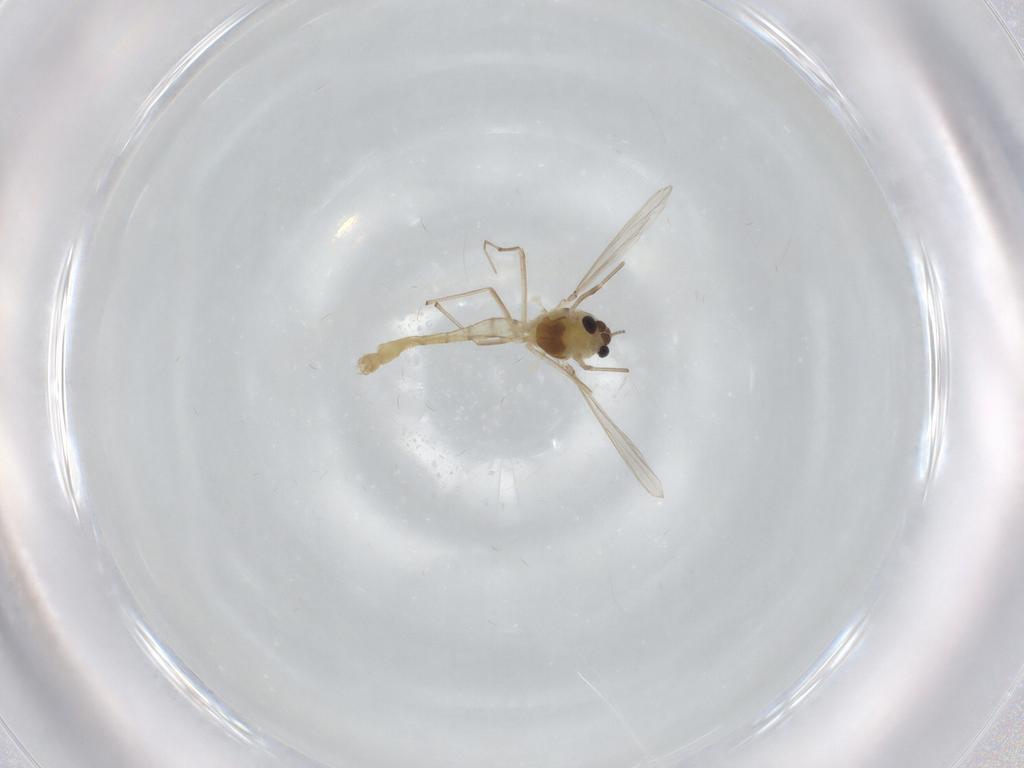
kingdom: Animalia
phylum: Arthropoda
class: Insecta
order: Diptera
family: Chironomidae
